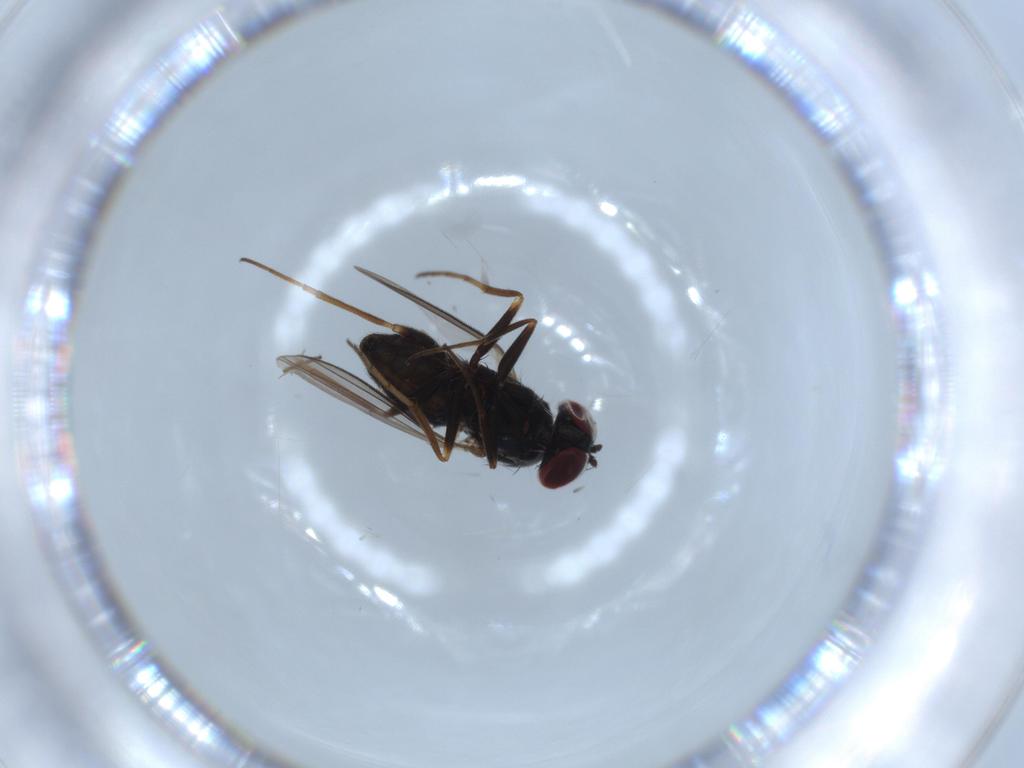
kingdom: Animalia
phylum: Arthropoda
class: Insecta
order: Diptera
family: Dolichopodidae
